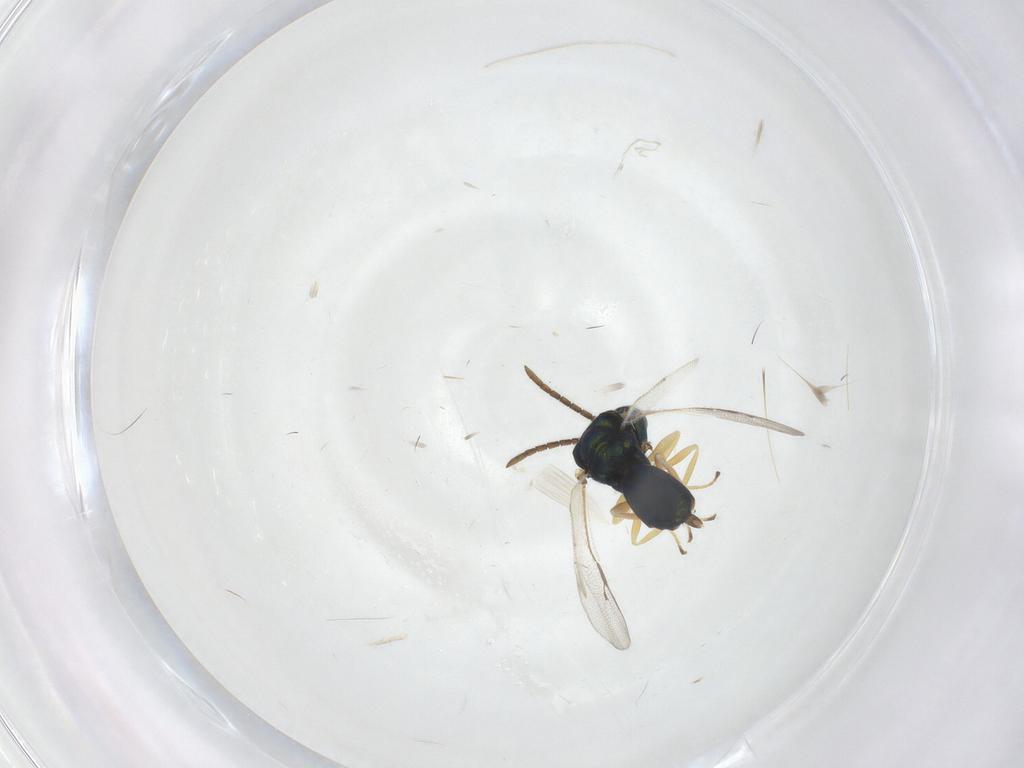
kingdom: Animalia
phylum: Arthropoda
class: Insecta
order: Hymenoptera
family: Pteromalidae
